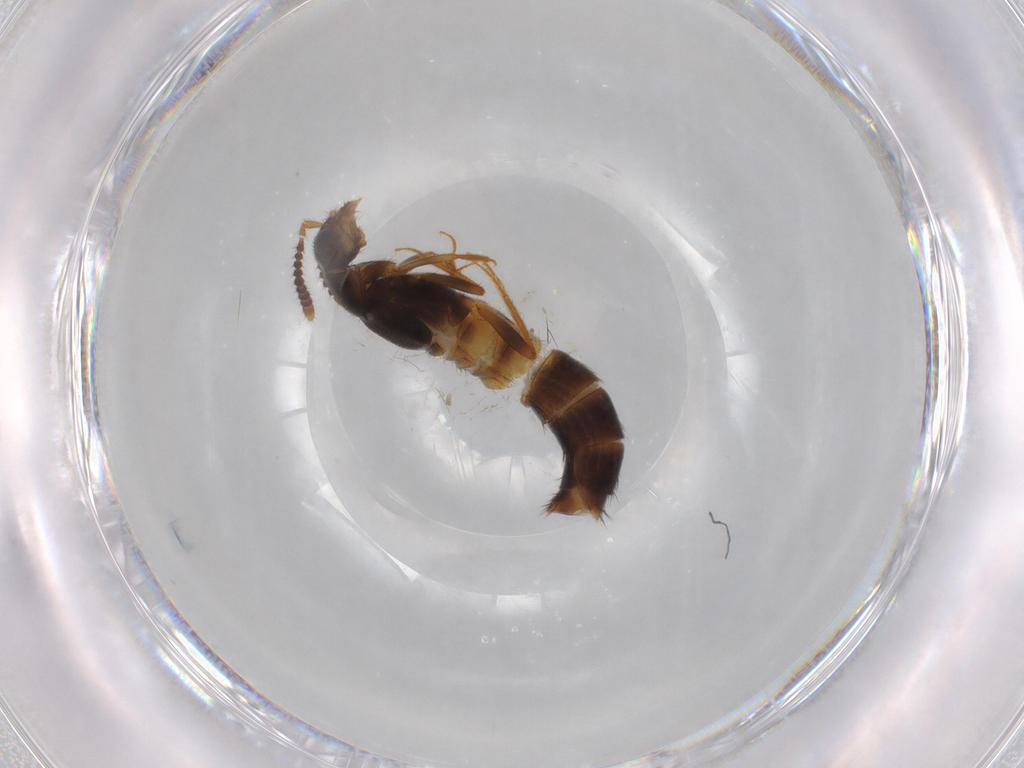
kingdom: Animalia
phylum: Arthropoda
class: Insecta
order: Coleoptera
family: Staphylinidae
